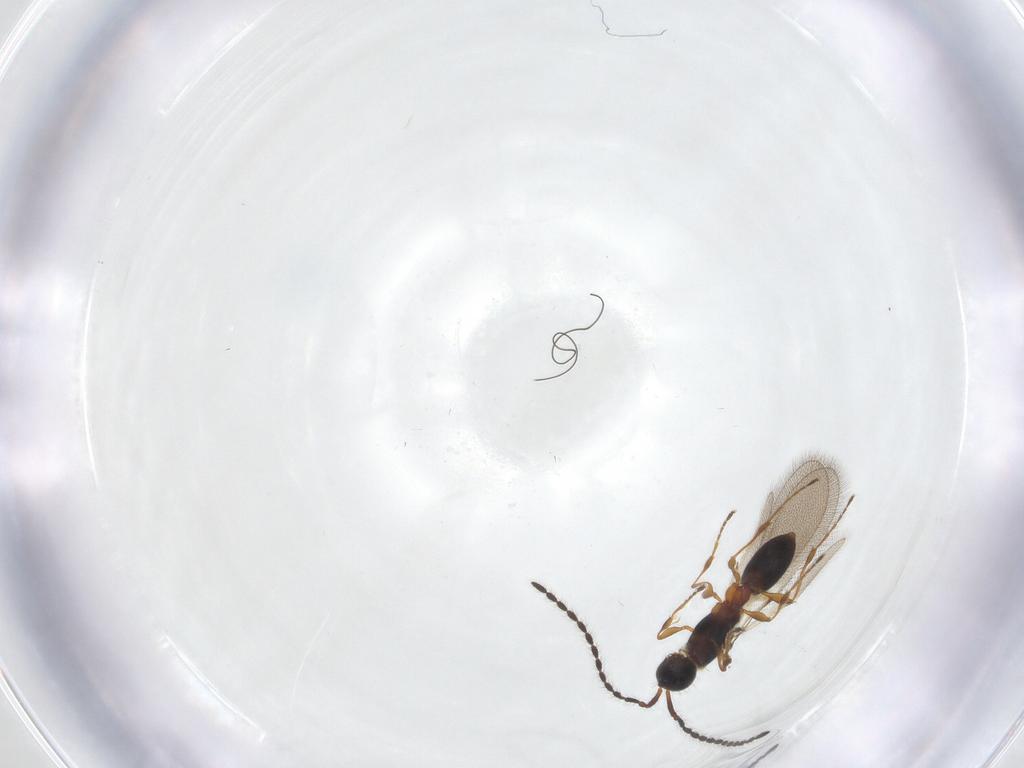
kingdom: Animalia
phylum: Arthropoda
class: Insecta
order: Hymenoptera
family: Diapriidae
